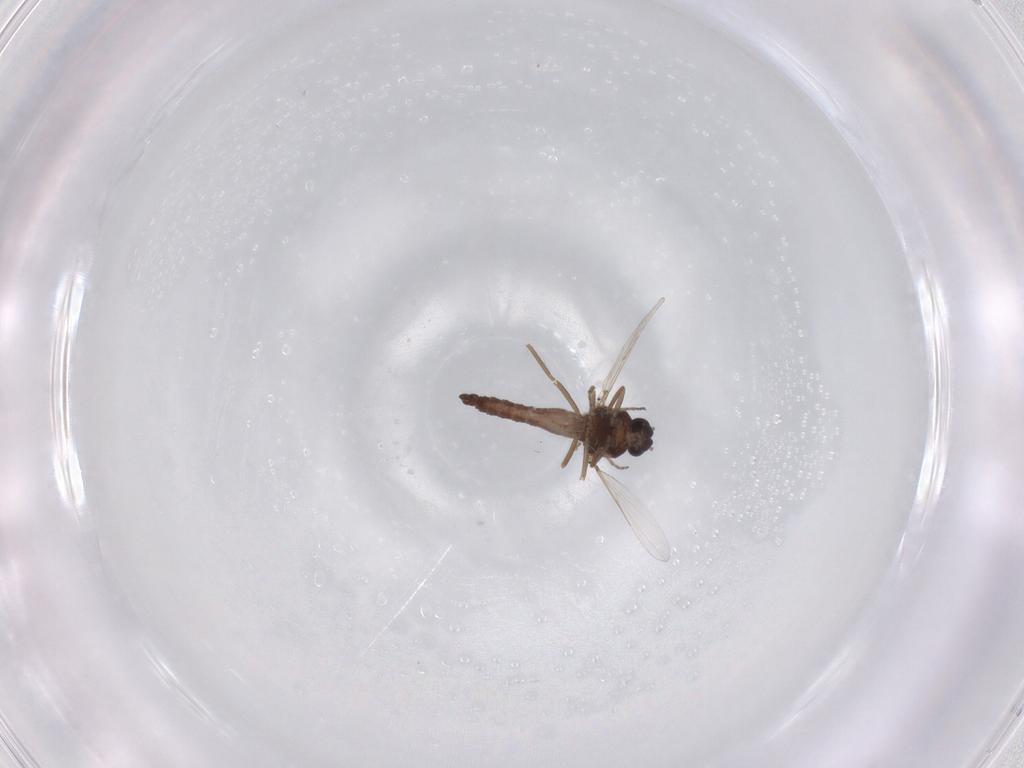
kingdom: Animalia
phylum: Arthropoda
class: Insecta
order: Diptera
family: Ceratopogonidae
